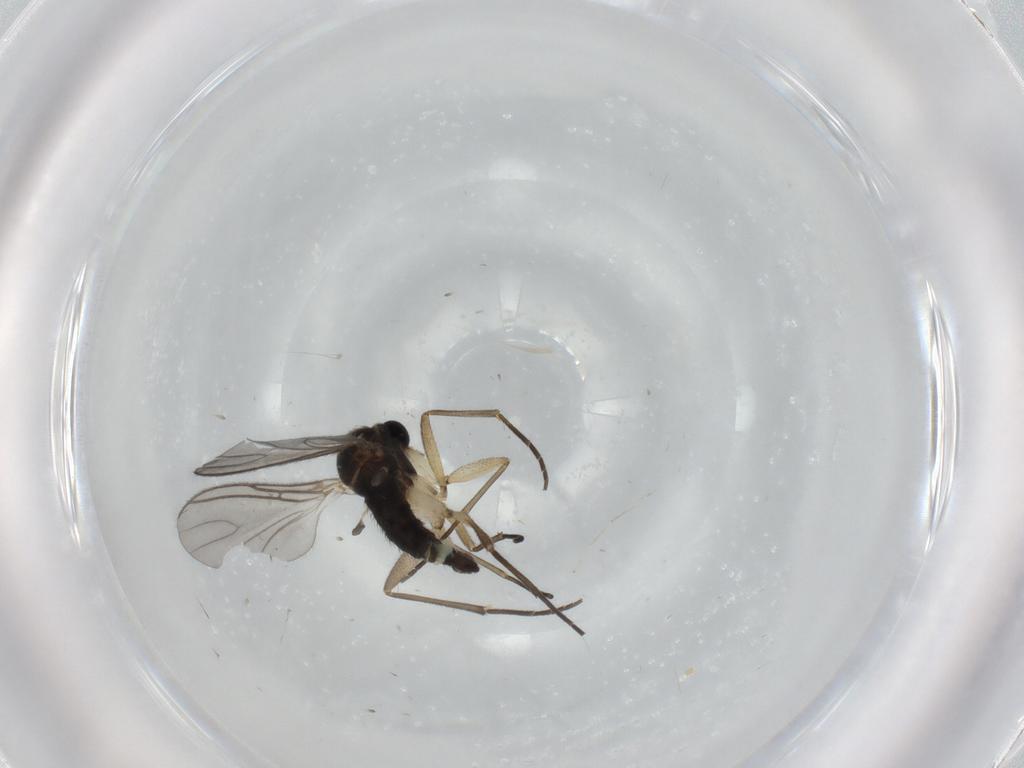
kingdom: Animalia
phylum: Arthropoda
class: Insecta
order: Diptera
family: Sciaridae
